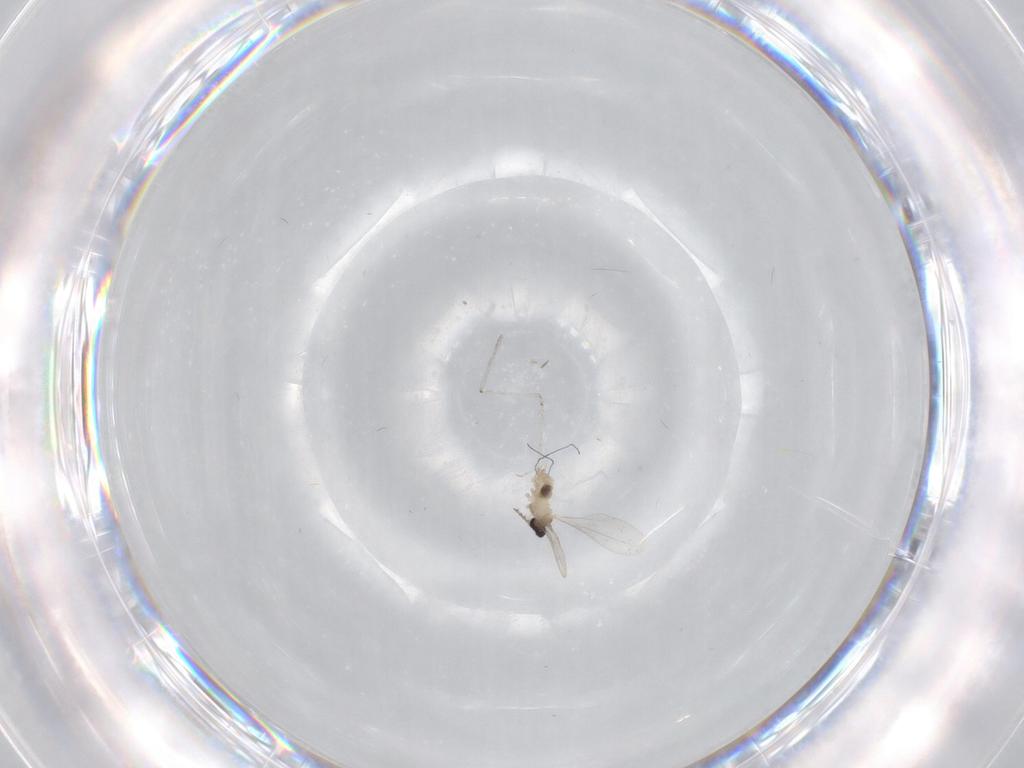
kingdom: Animalia
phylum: Arthropoda
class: Insecta
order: Diptera
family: Cecidomyiidae
